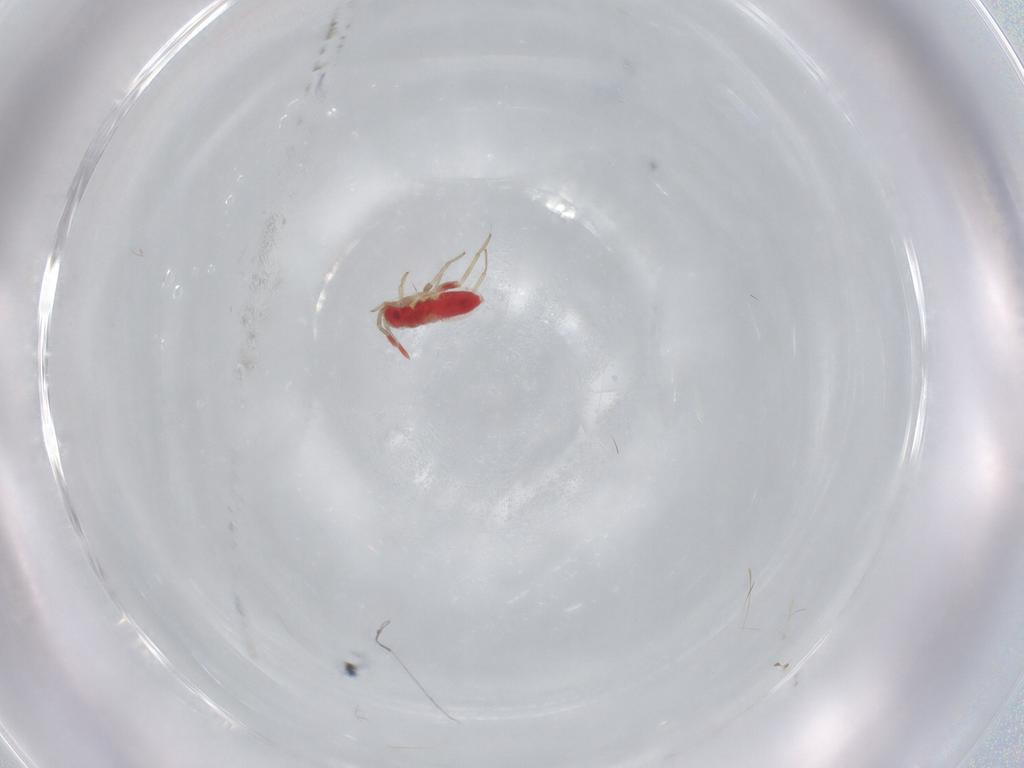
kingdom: Animalia
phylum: Arthropoda
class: Insecta
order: Hemiptera
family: Miridae
